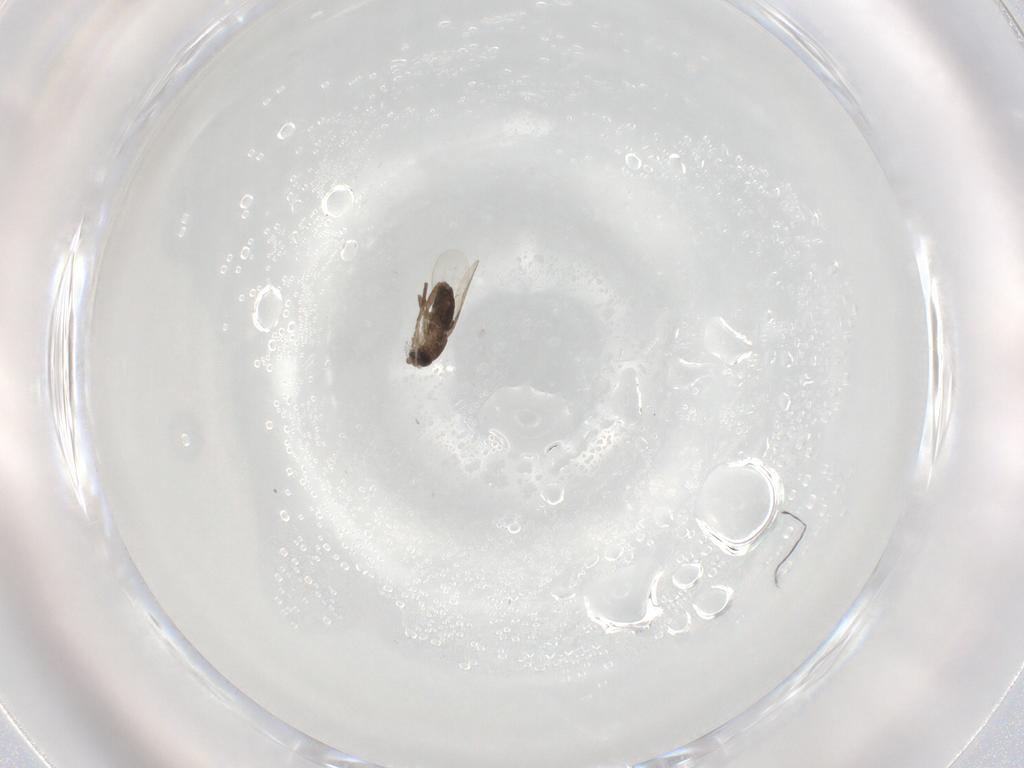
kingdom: Animalia
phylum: Arthropoda
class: Insecta
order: Diptera
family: Phoridae
